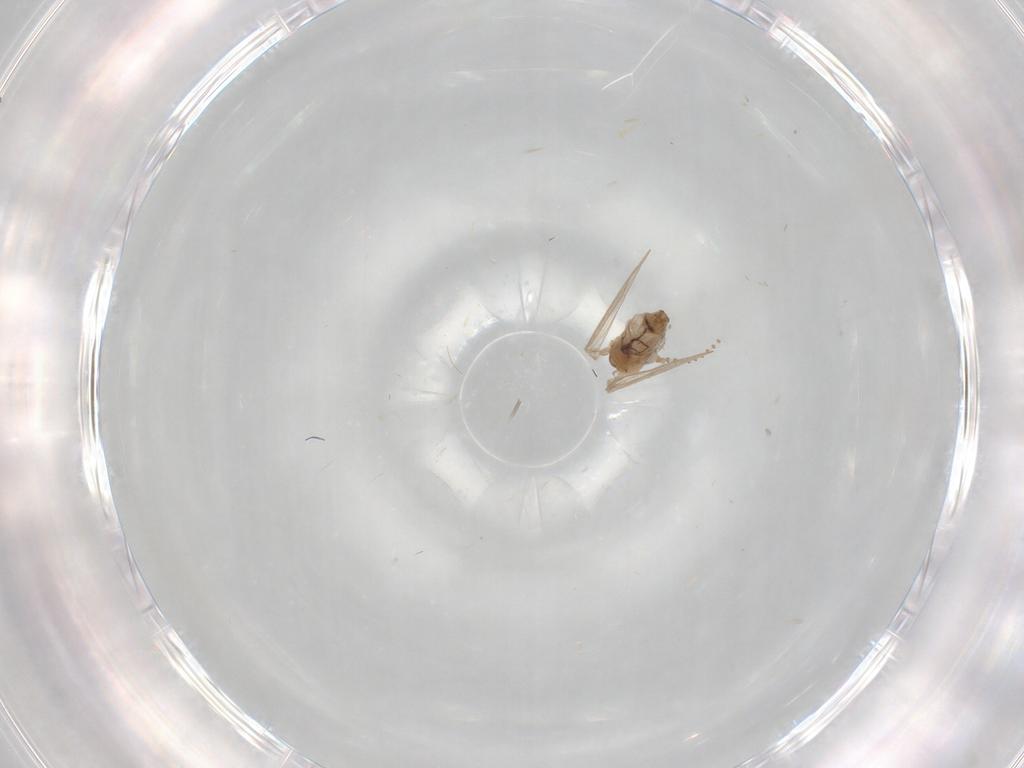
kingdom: Animalia
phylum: Arthropoda
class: Insecta
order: Diptera
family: Psychodidae
